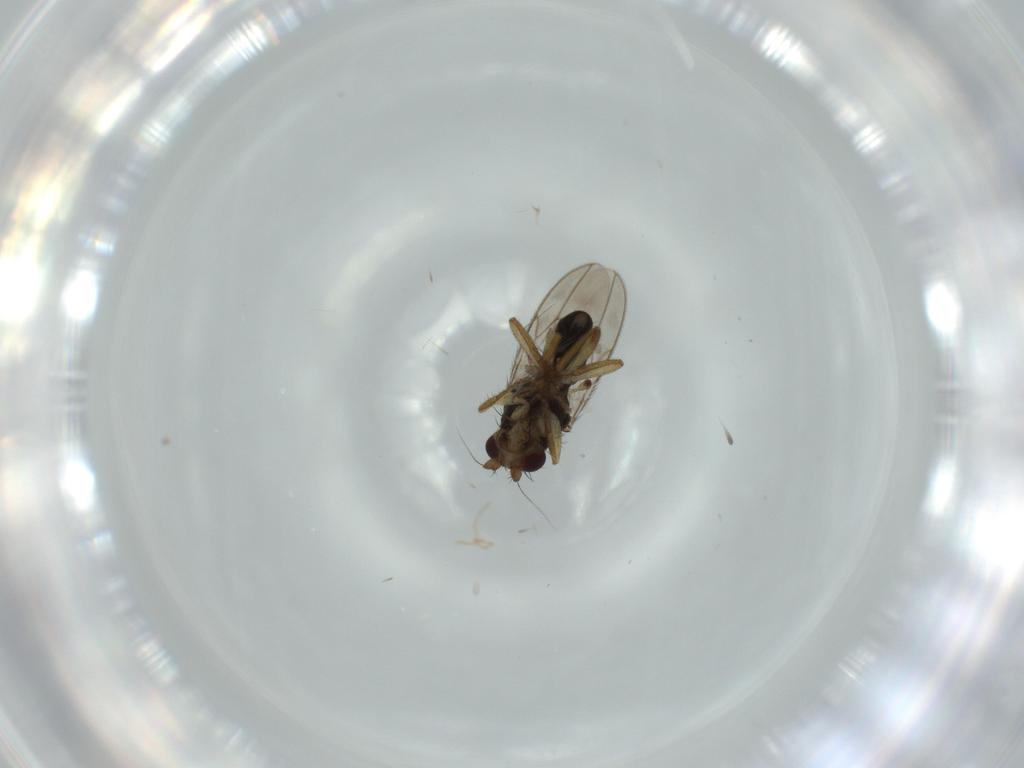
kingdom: Animalia
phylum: Arthropoda
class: Insecta
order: Diptera
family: Sphaeroceridae
